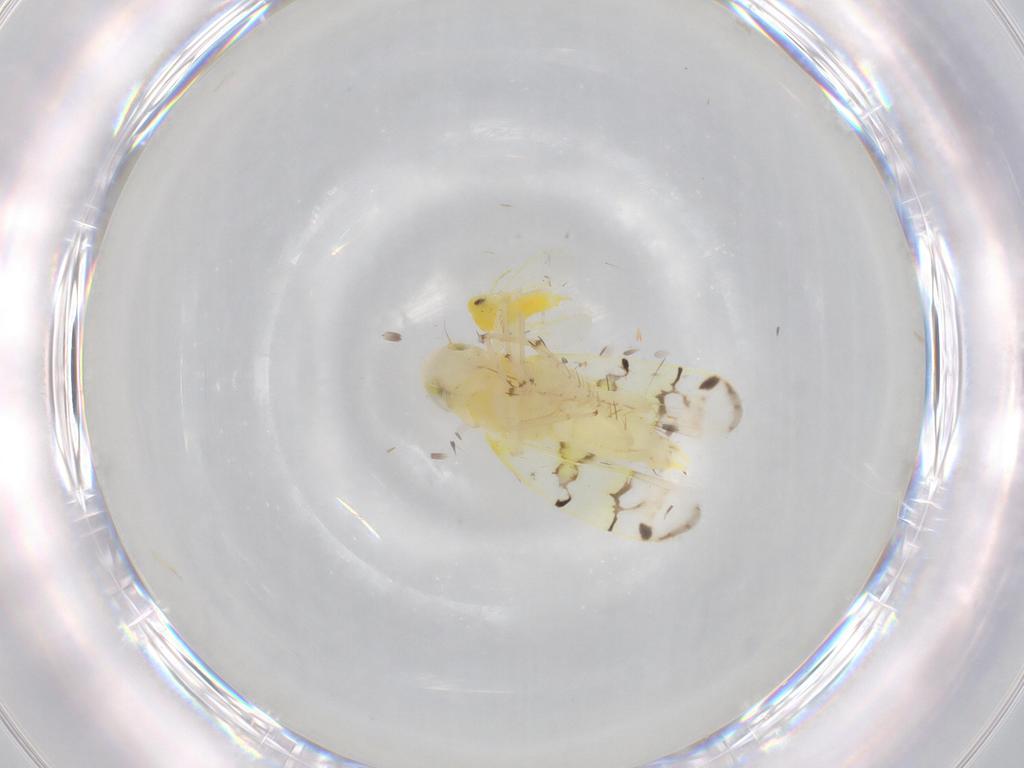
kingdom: Animalia
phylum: Arthropoda
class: Insecta
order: Hemiptera
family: Cicadellidae
